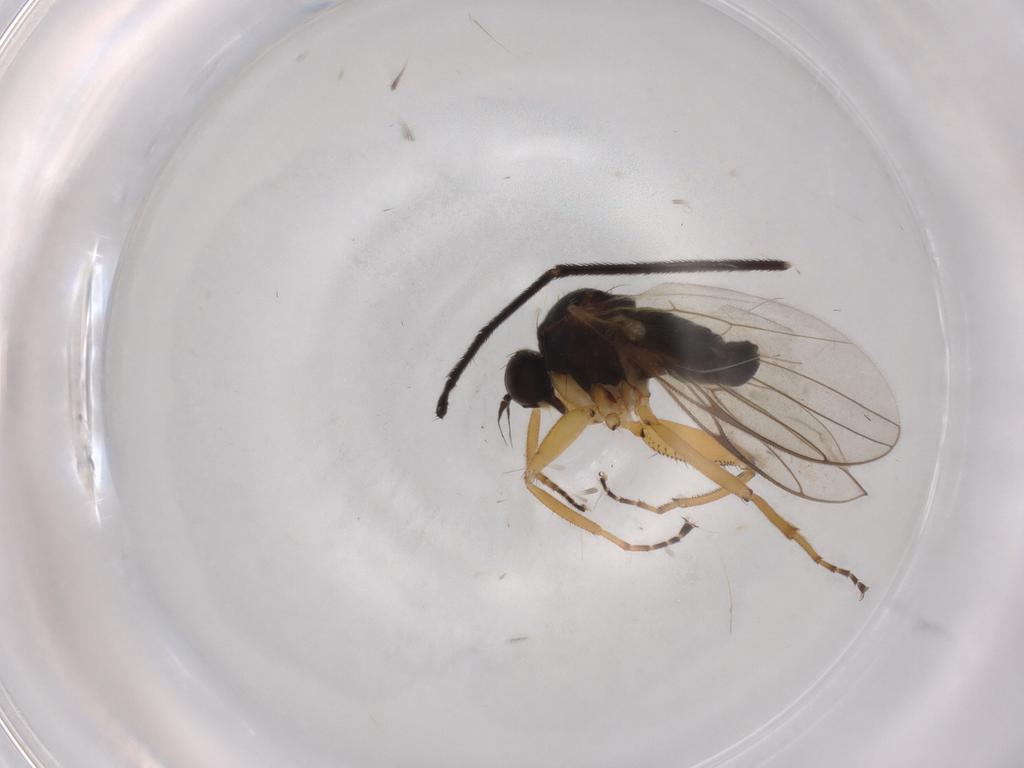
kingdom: Animalia
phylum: Arthropoda
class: Insecta
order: Diptera
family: Hybotidae
